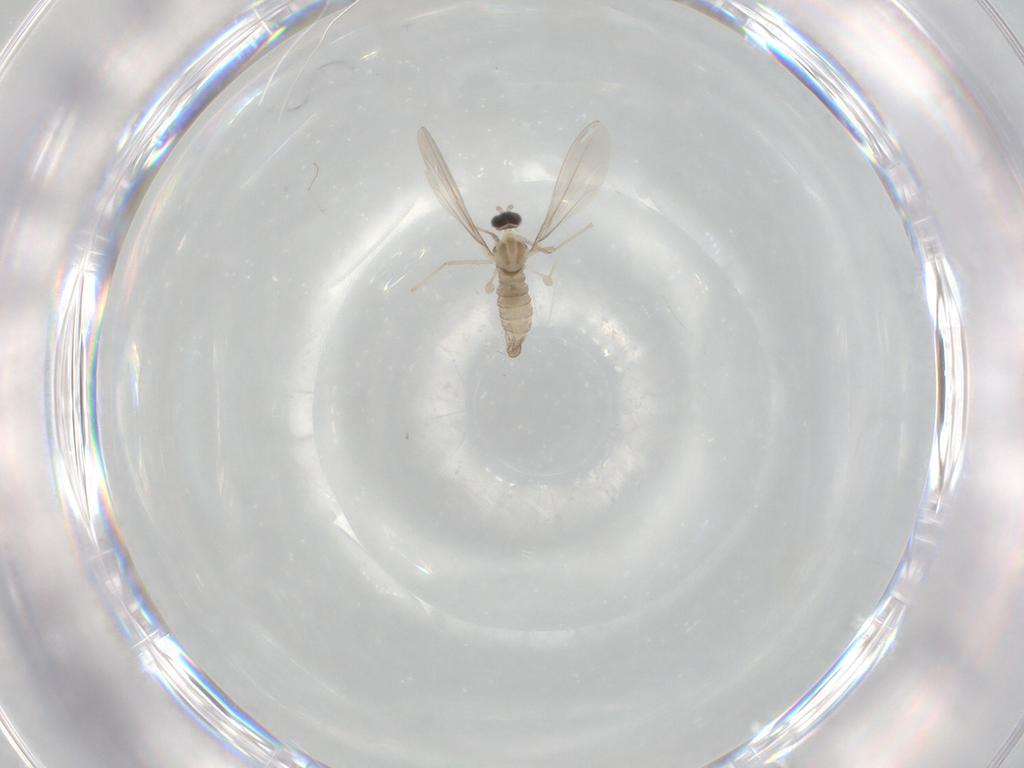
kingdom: Animalia
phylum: Arthropoda
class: Insecta
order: Diptera
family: Cecidomyiidae
